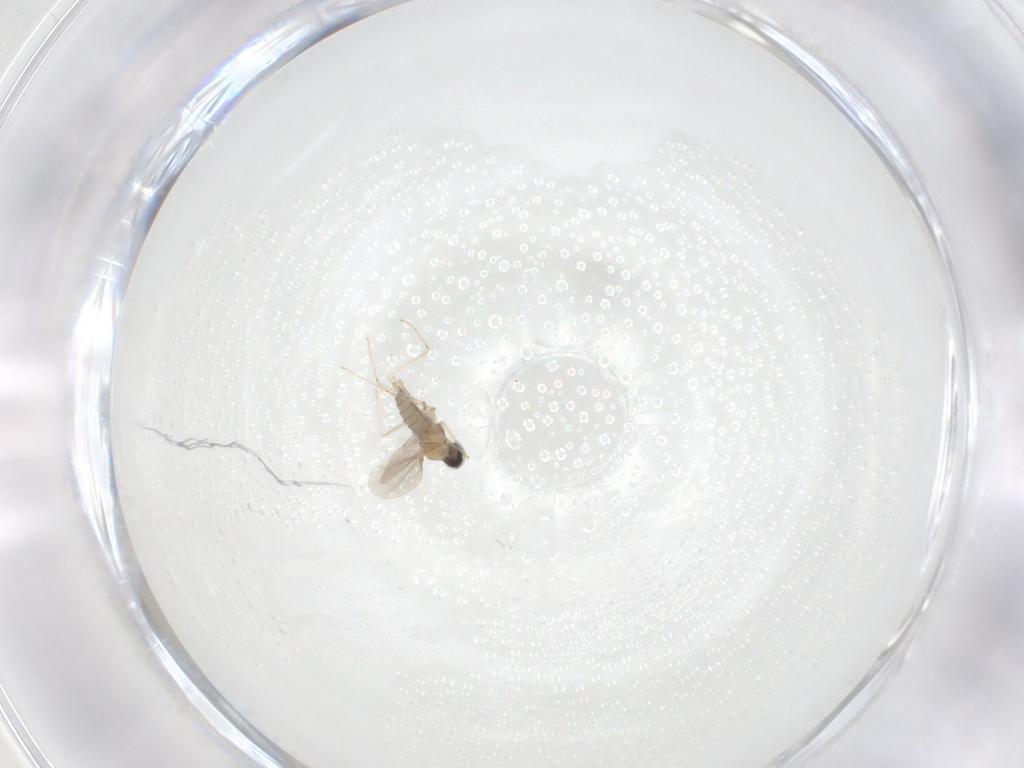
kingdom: Animalia
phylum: Arthropoda
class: Insecta
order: Diptera
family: Cecidomyiidae
